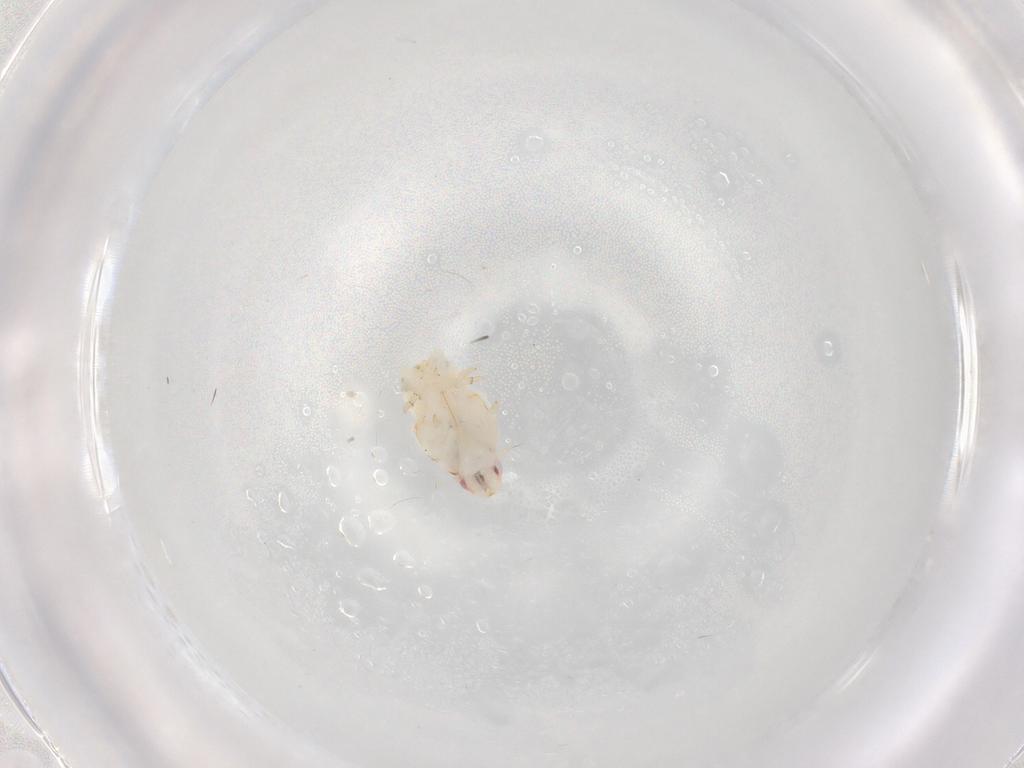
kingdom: Animalia
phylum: Arthropoda
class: Insecta
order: Hemiptera
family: Flatidae
